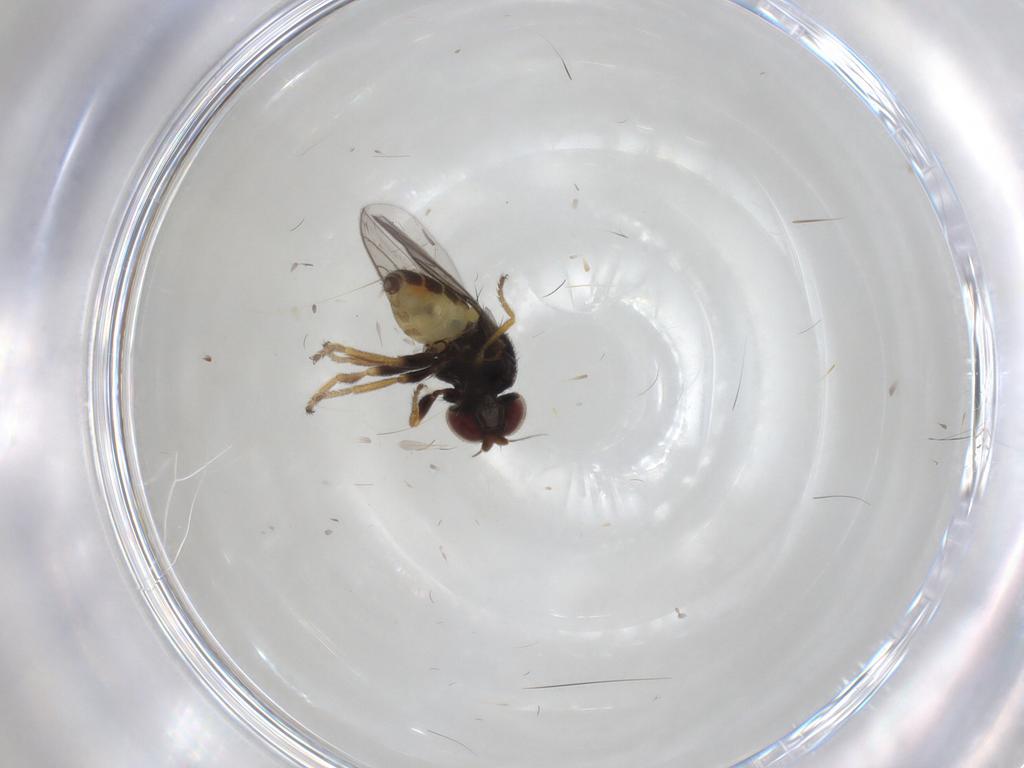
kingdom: Animalia
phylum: Arthropoda
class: Insecta
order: Diptera
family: Chloropidae
